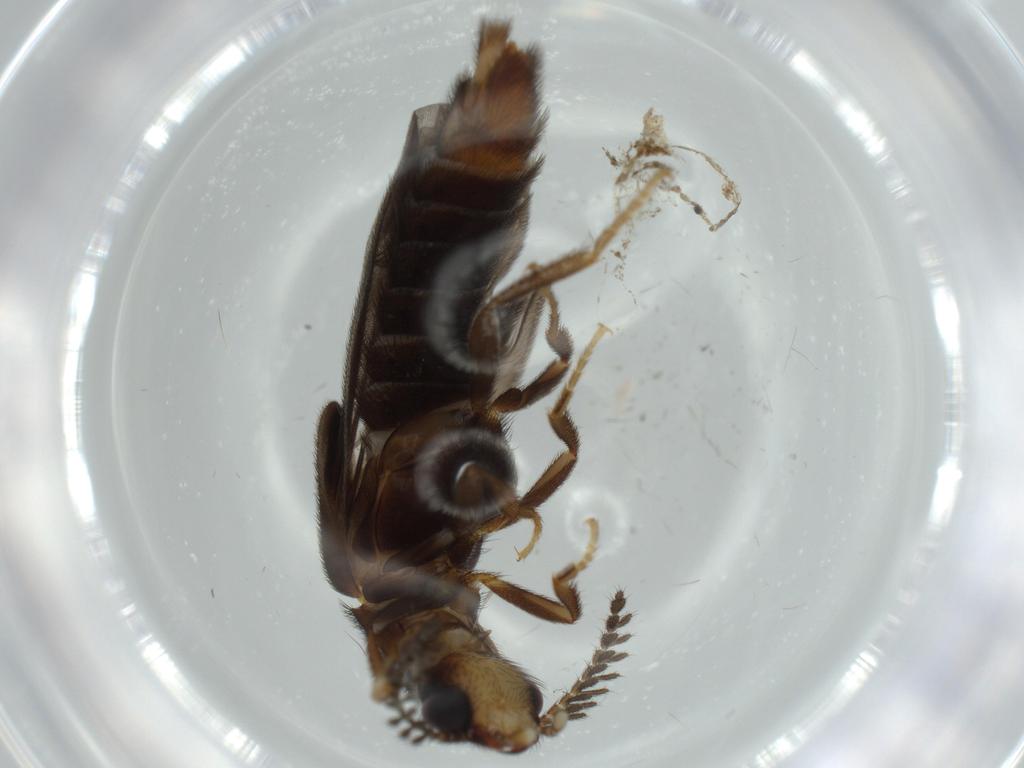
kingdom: Animalia
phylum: Arthropoda
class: Insecta
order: Coleoptera
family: Phengodidae
